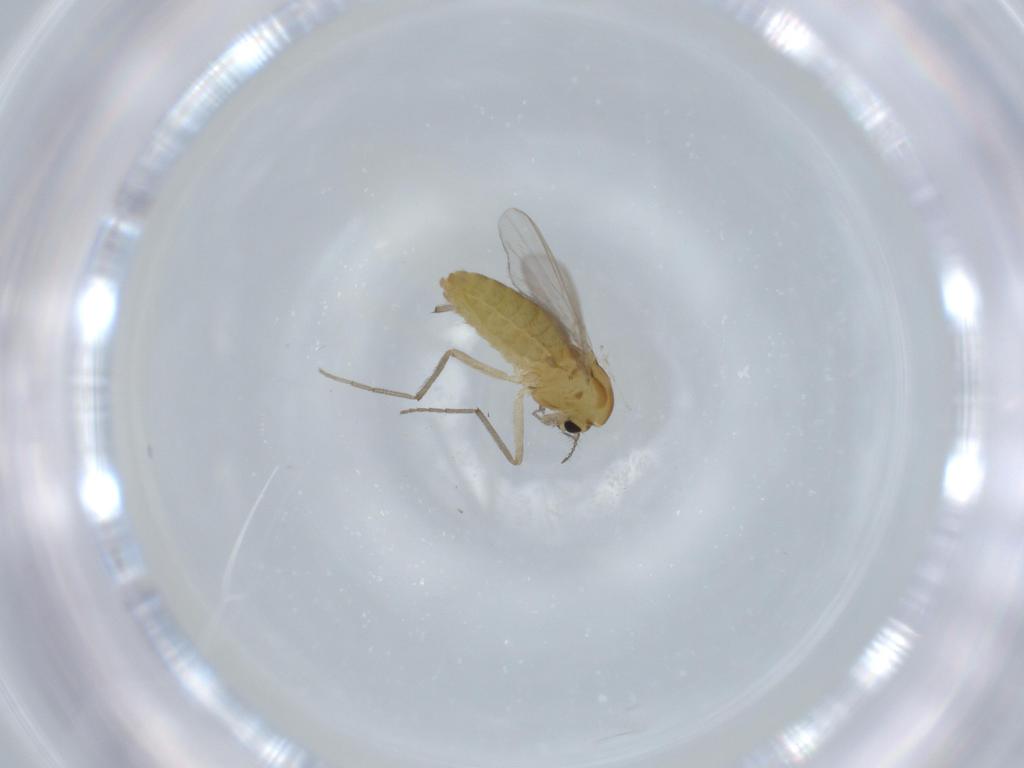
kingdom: Animalia
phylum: Arthropoda
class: Insecta
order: Diptera
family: Chironomidae
